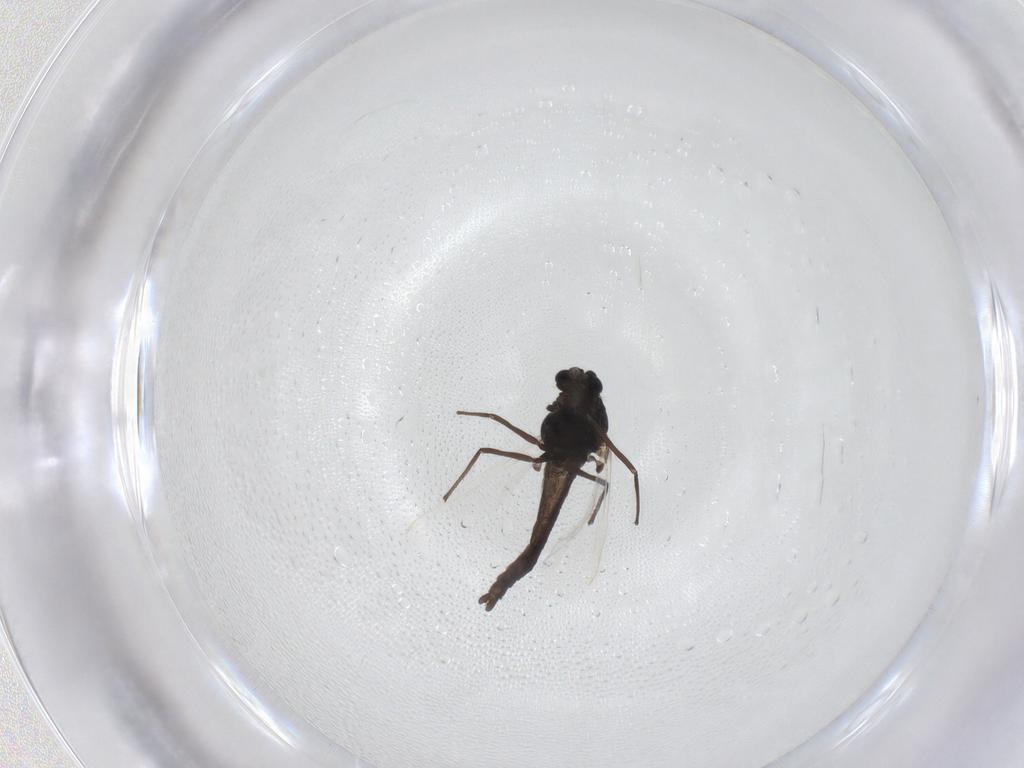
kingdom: Animalia
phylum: Arthropoda
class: Insecta
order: Diptera
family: Chironomidae
